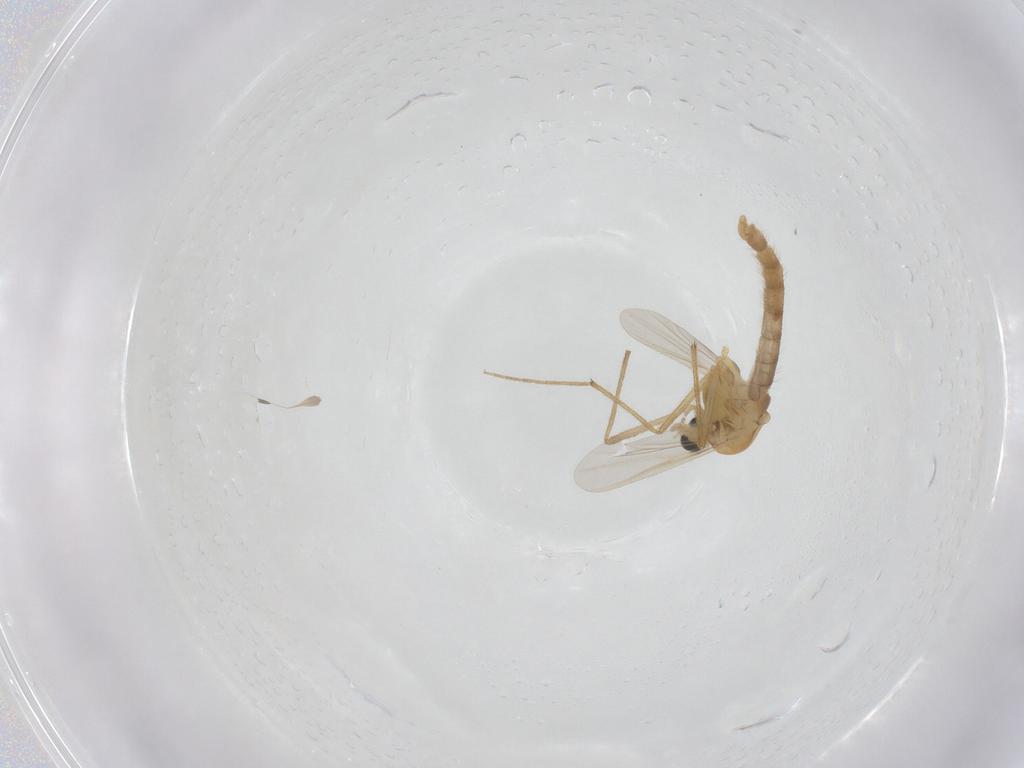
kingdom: Animalia
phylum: Arthropoda
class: Insecta
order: Diptera
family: Chironomidae
